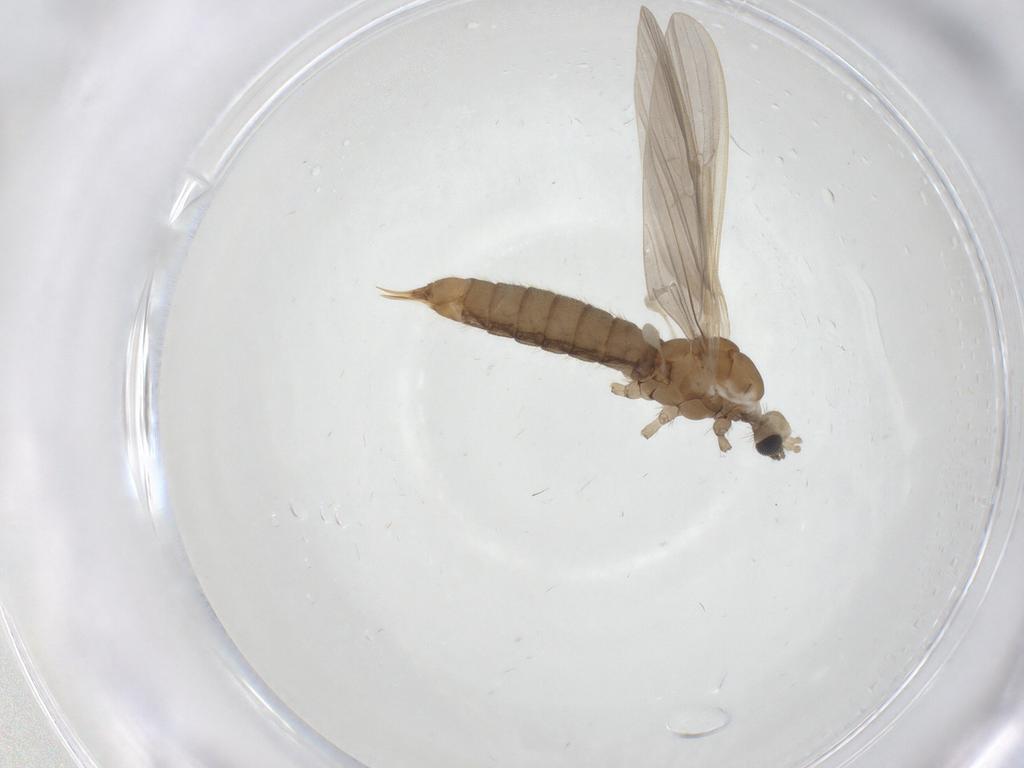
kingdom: Animalia
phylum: Arthropoda
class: Insecta
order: Diptera
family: Limoniidae
